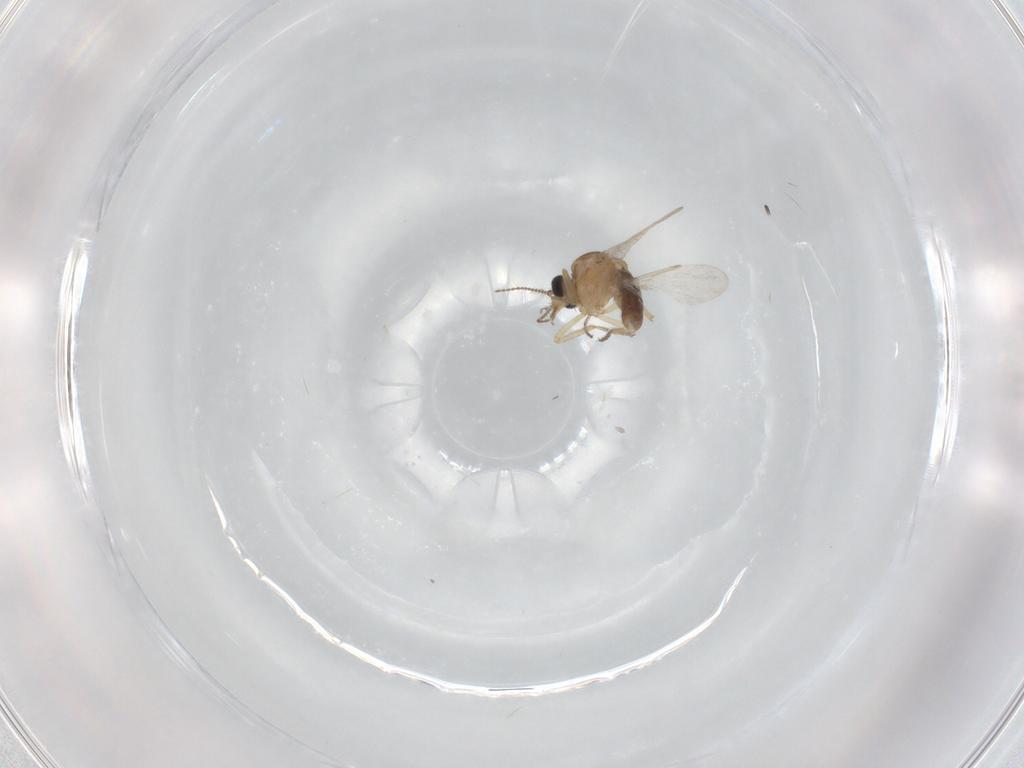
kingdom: Animalia
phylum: Arthropoda
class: Insecta
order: Diptera
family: Ceratopogonidae
